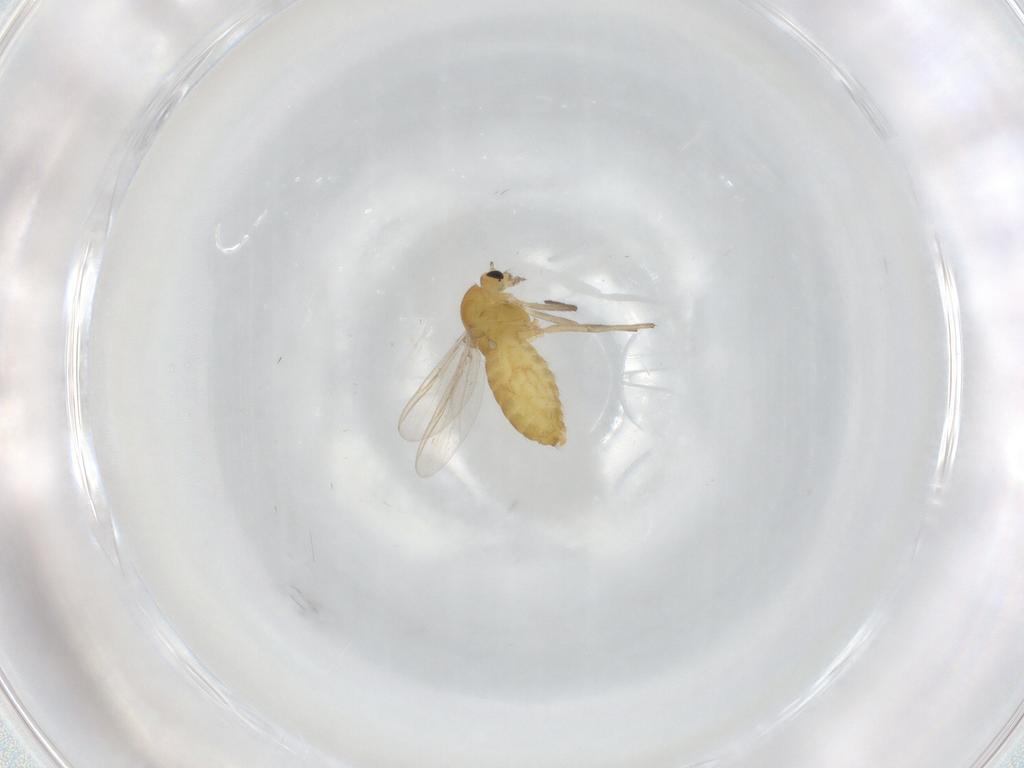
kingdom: Animalia
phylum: Arthropoda
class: Insecta
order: Diptera
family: Chironomidae
